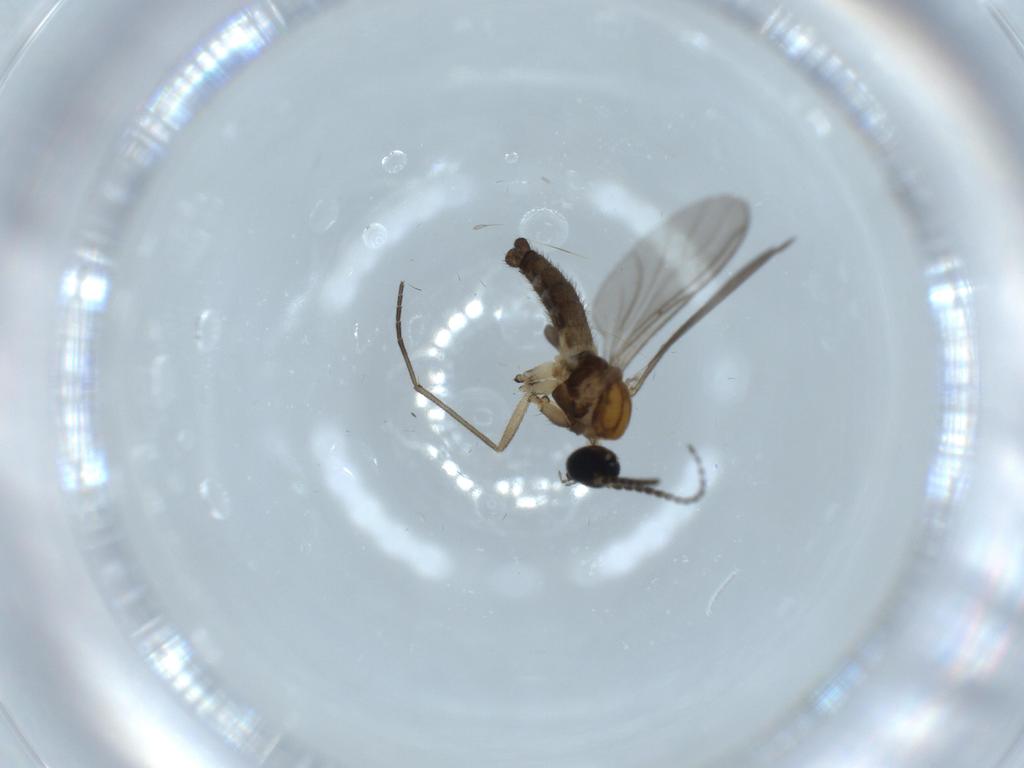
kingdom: Animalia
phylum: Arthropoda
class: Insecta
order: Diptera
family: Sciaridae
